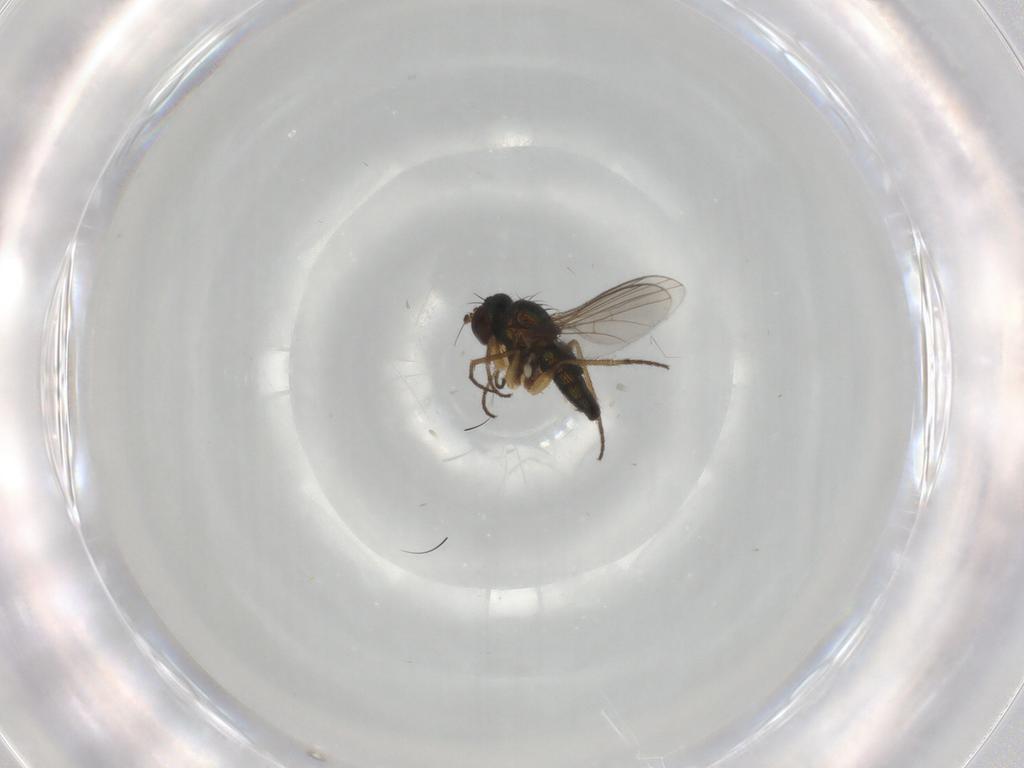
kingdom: Animalia
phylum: Arthropoda
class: Insecta
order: Diptera
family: Dolichopodidae
